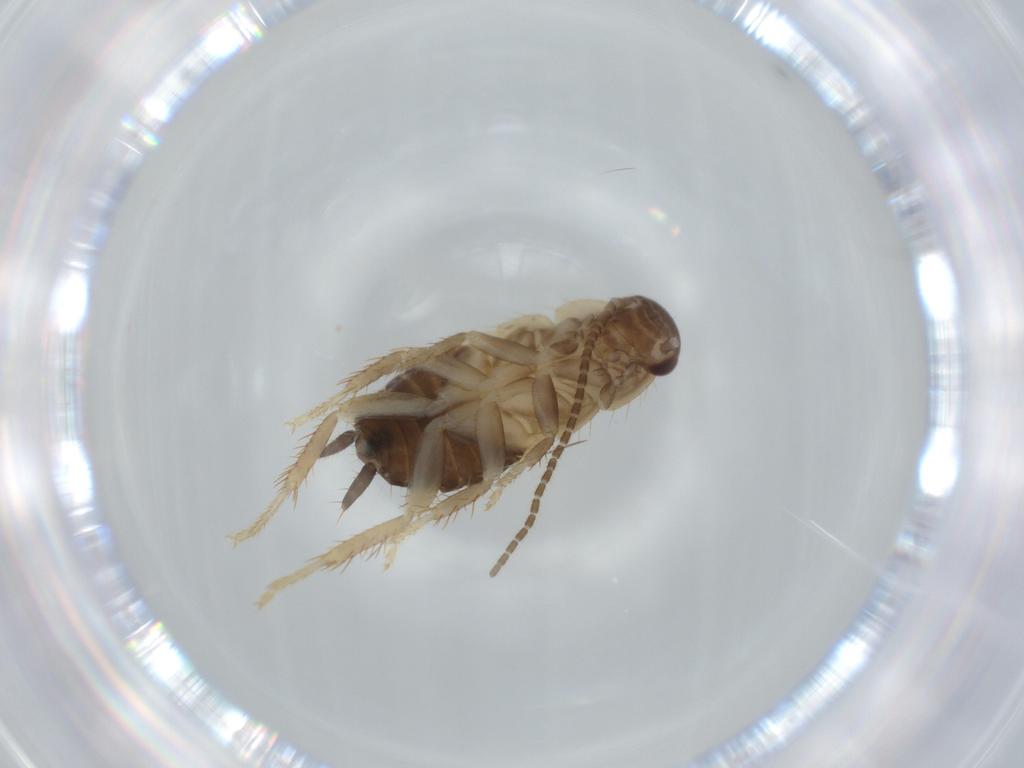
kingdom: Animalia
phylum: Arthropoda
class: Insecta
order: Blattodea
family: Ectobiidae
